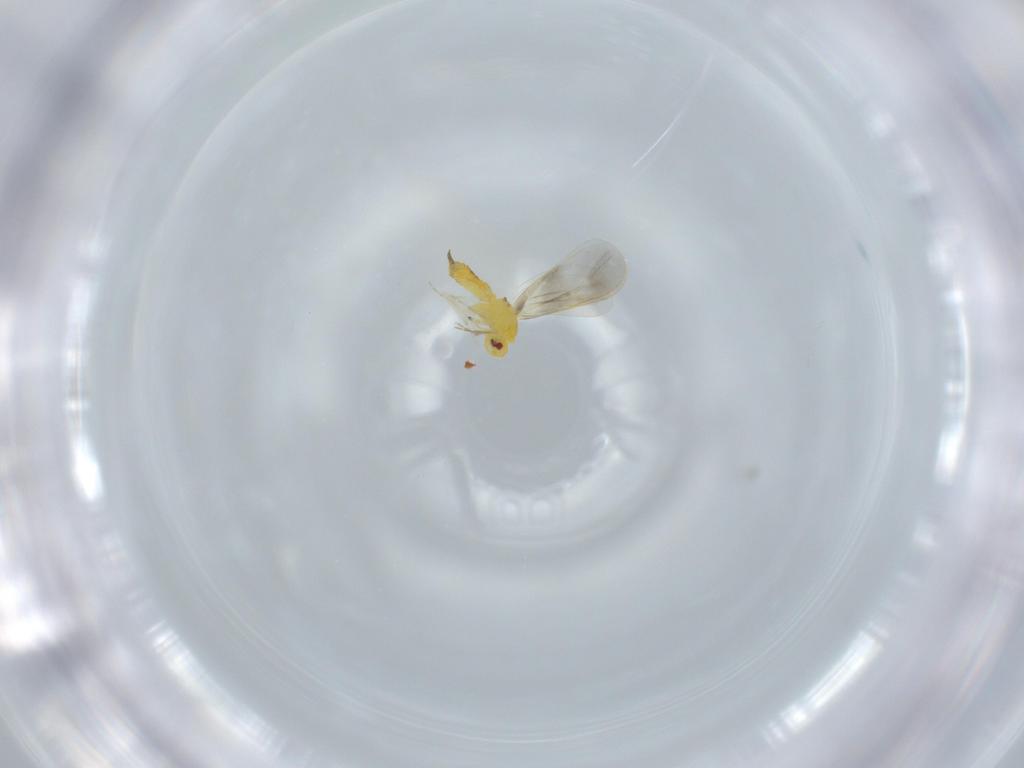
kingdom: Animalia
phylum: Arthropoda
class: Insecta
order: Hemiptera
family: Aleyrodidae
